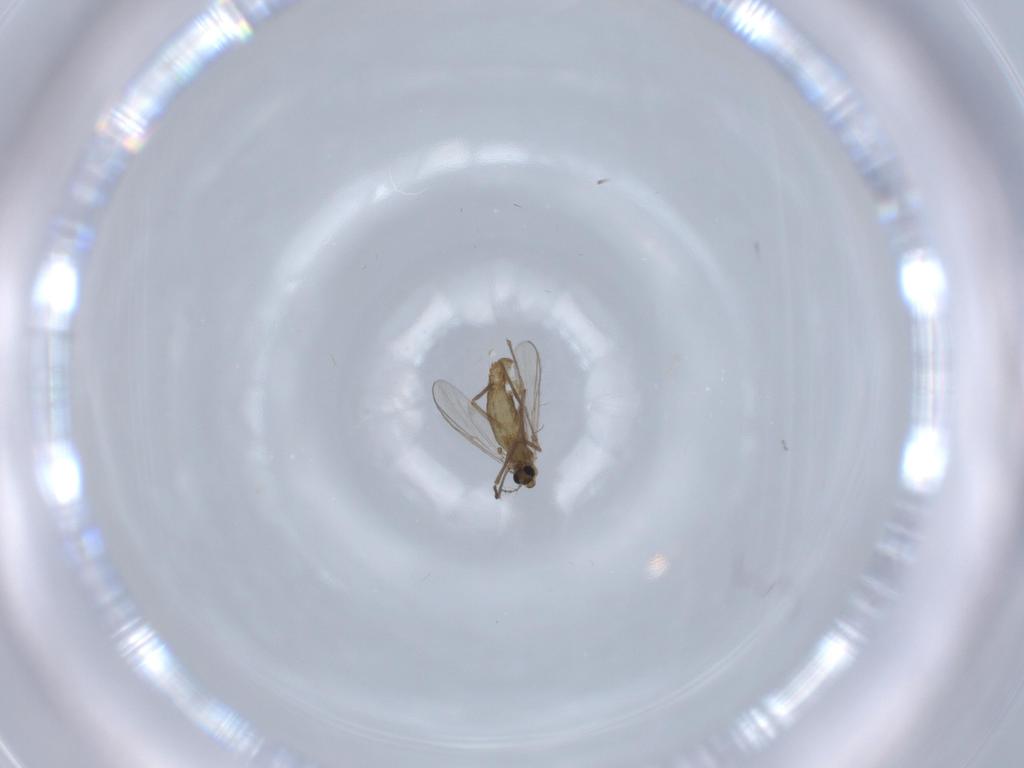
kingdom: Animalia
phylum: Arthropoda
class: Insecta
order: Diptera
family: Chironomidae
